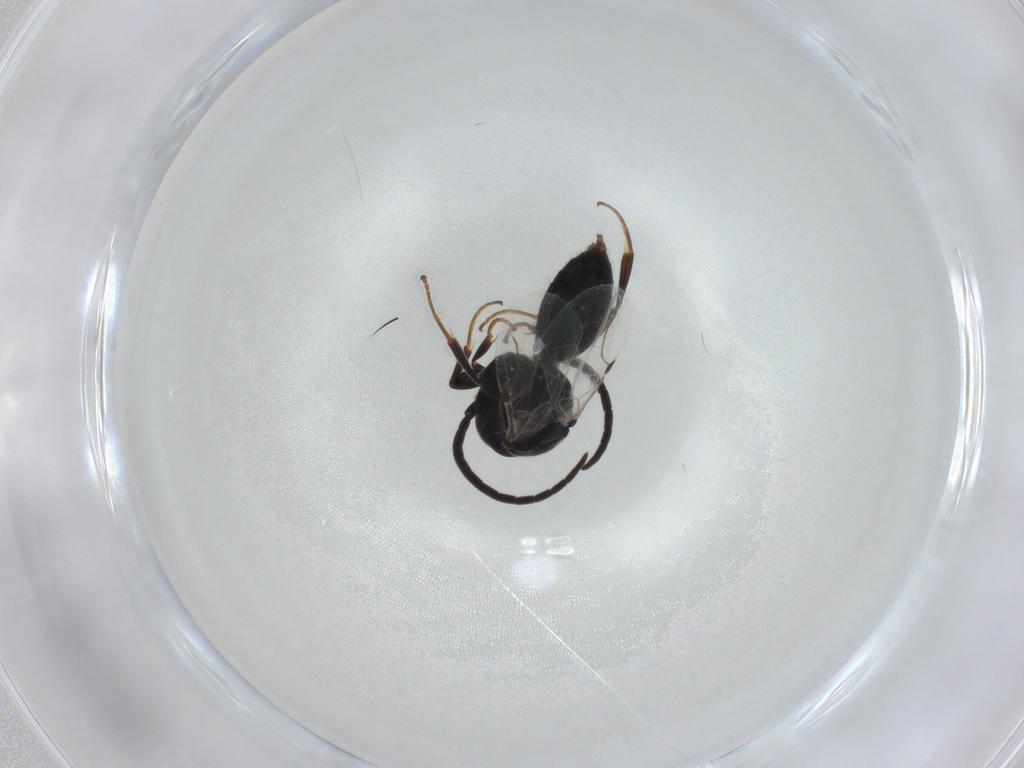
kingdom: Animalia
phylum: Arthropoda
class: Insecta
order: Hymenoptera
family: Bethylidae
